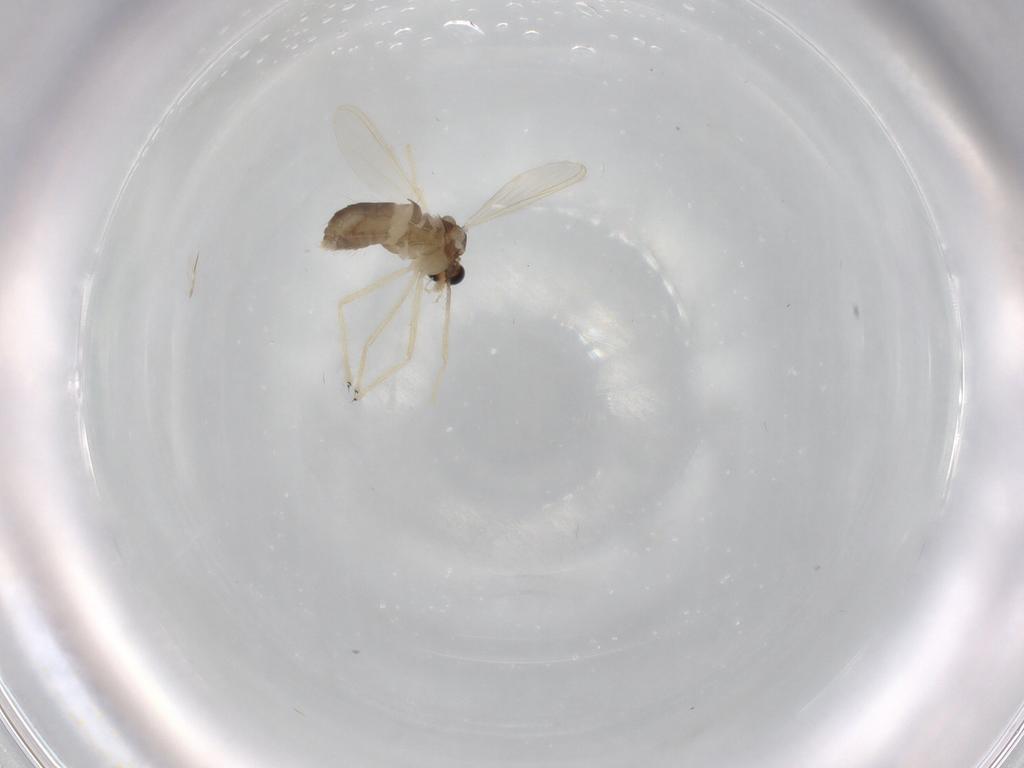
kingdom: Animalia
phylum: Arthropoda
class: Insecta
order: Diptera
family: Chironomidae
